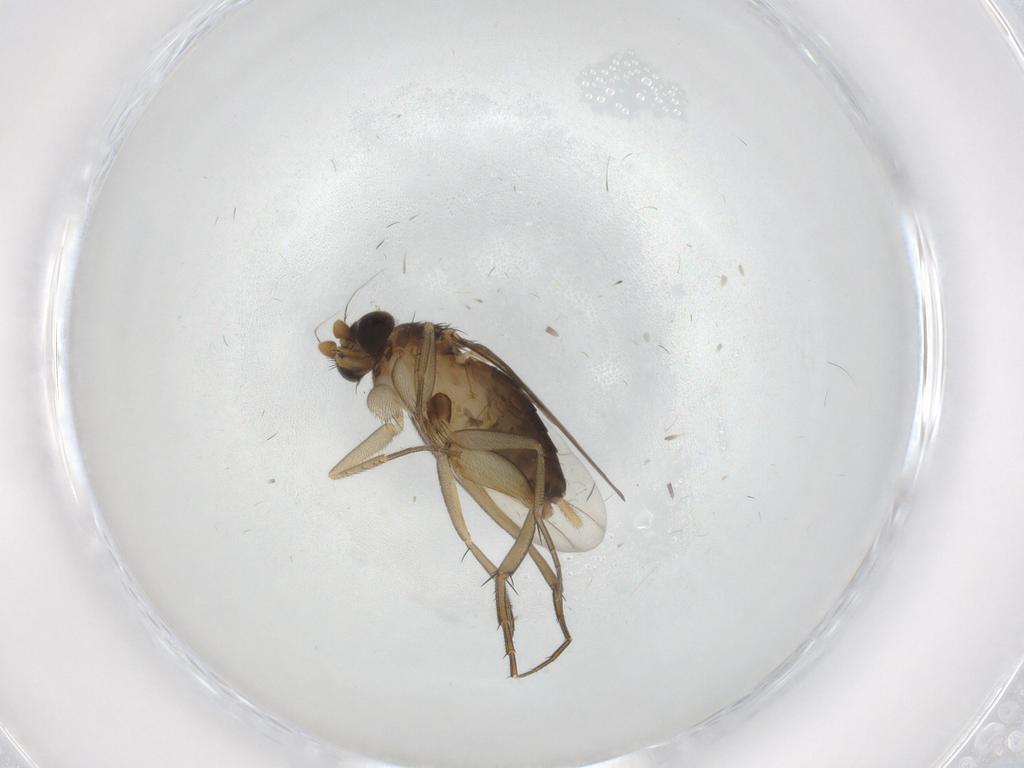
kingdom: Animalia
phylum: Arthropoda
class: Insecta
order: Diptera
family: Phoridae
